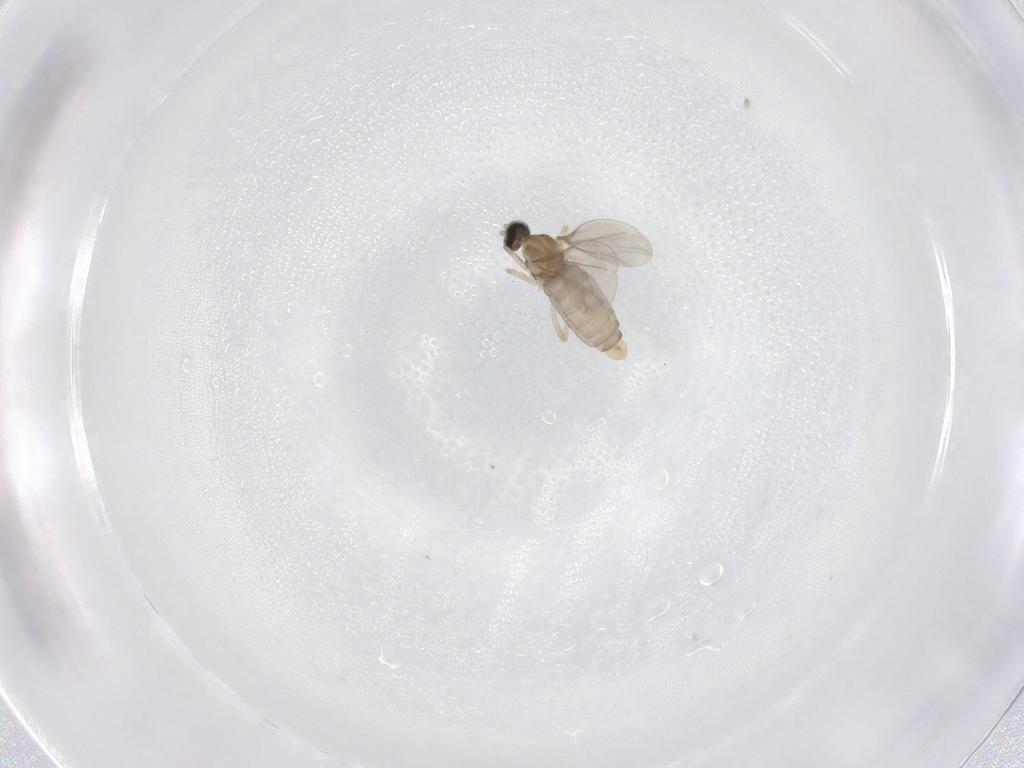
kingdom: Animalia
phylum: Arthropoda
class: Insecta
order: Diptera
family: Cecidomyiidae
